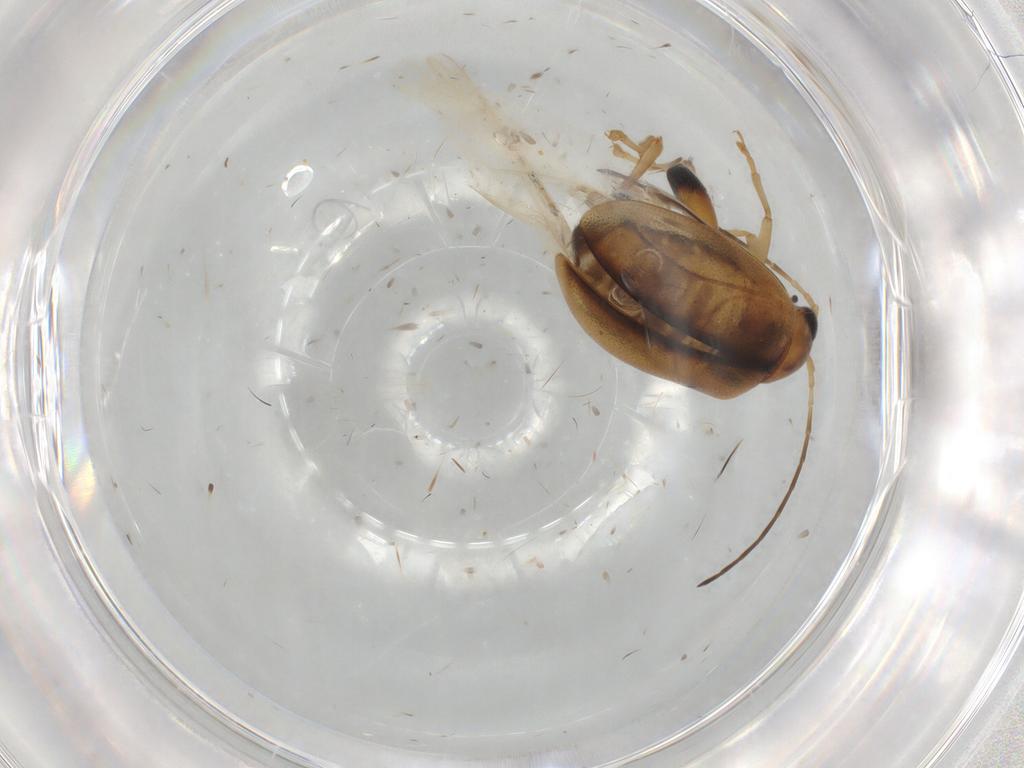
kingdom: Animalia
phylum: Arthropoda
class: Insecta
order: Coleoptera
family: Chrysomelidae
